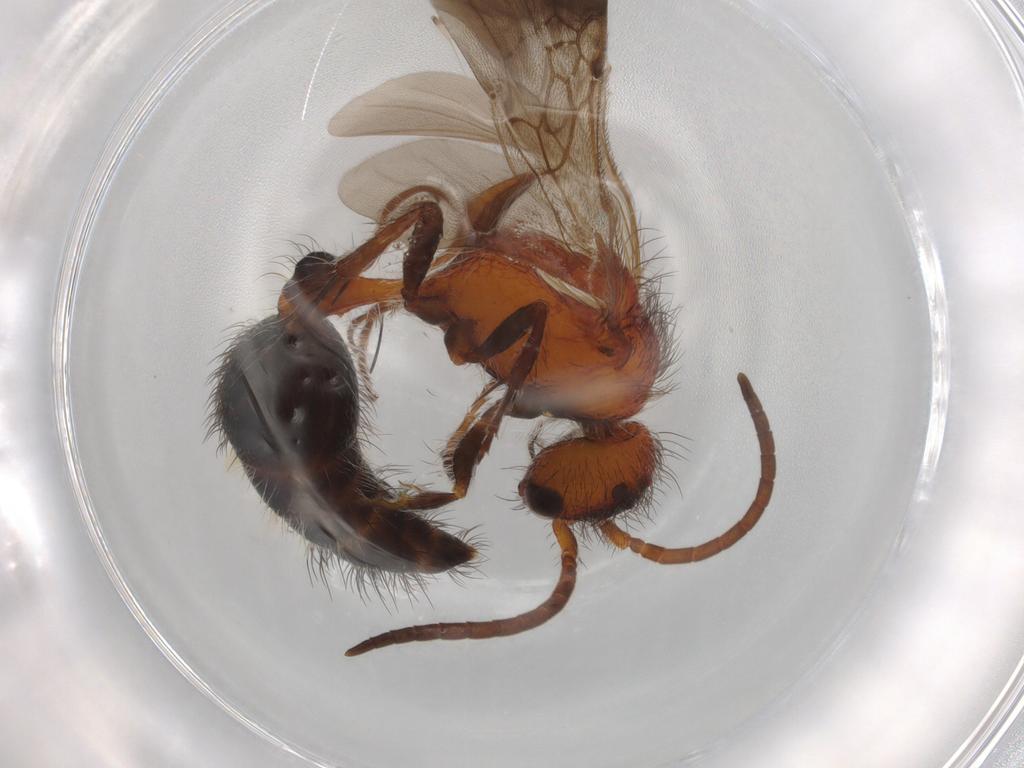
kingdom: Animalia
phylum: Arthropoda
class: Insecta
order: Hymenoptera
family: Mutillidae
